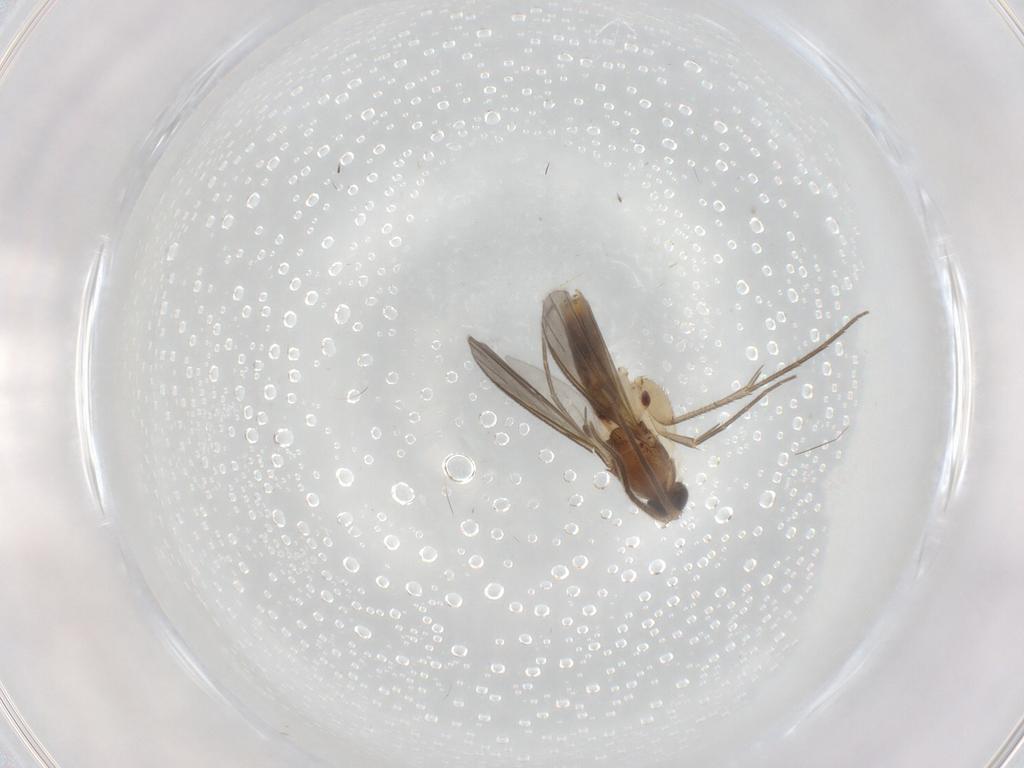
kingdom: Animalia
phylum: Arthropoda
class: Insecta
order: Diptera
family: Mycetophilidae
